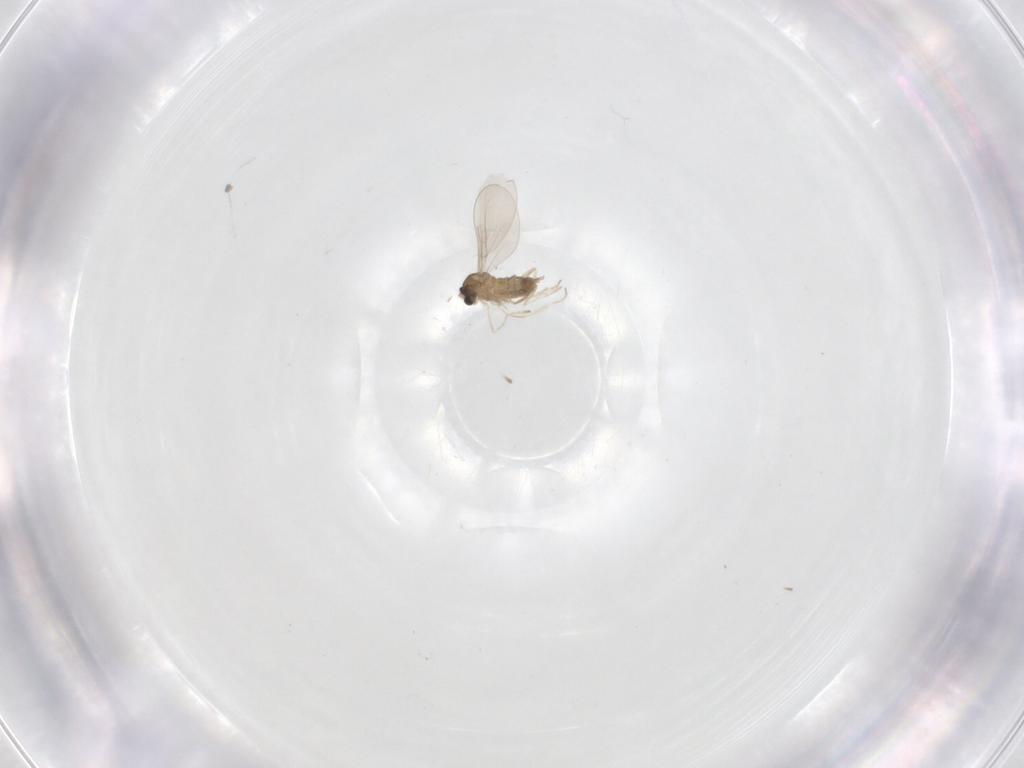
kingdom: Animalia
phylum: Arthropoda
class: Insecta
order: Diptera
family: Cecidomyiidae
